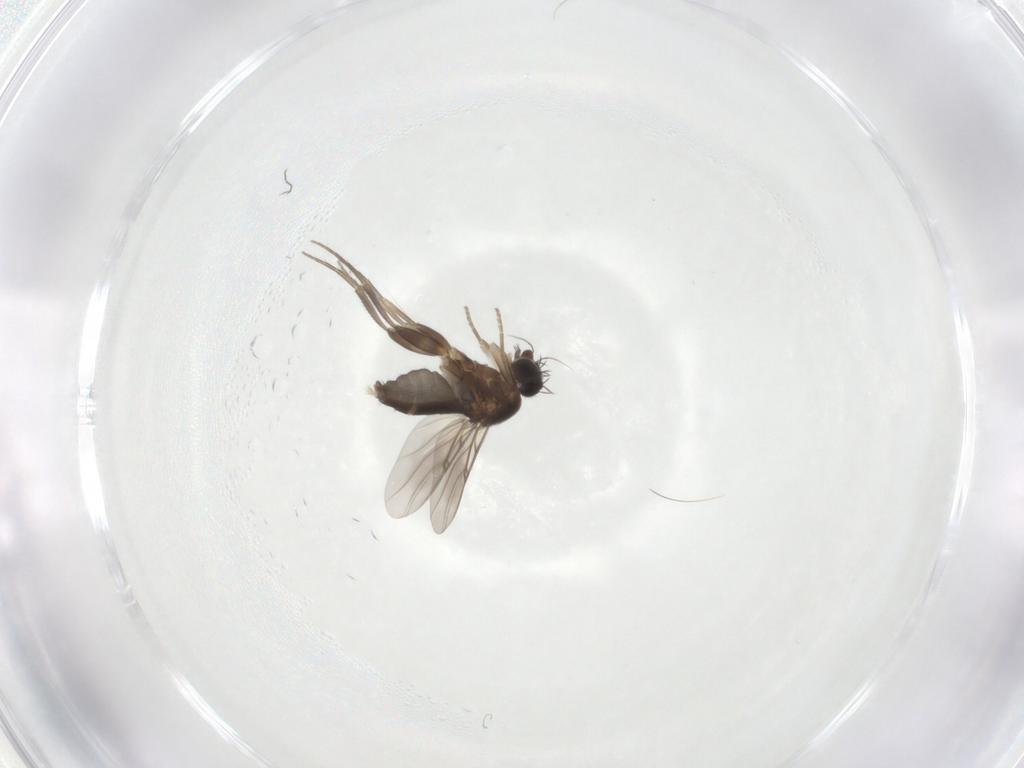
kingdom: Animalia
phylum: Arthropoda
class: Insecta
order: Diptera
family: Phoridae
